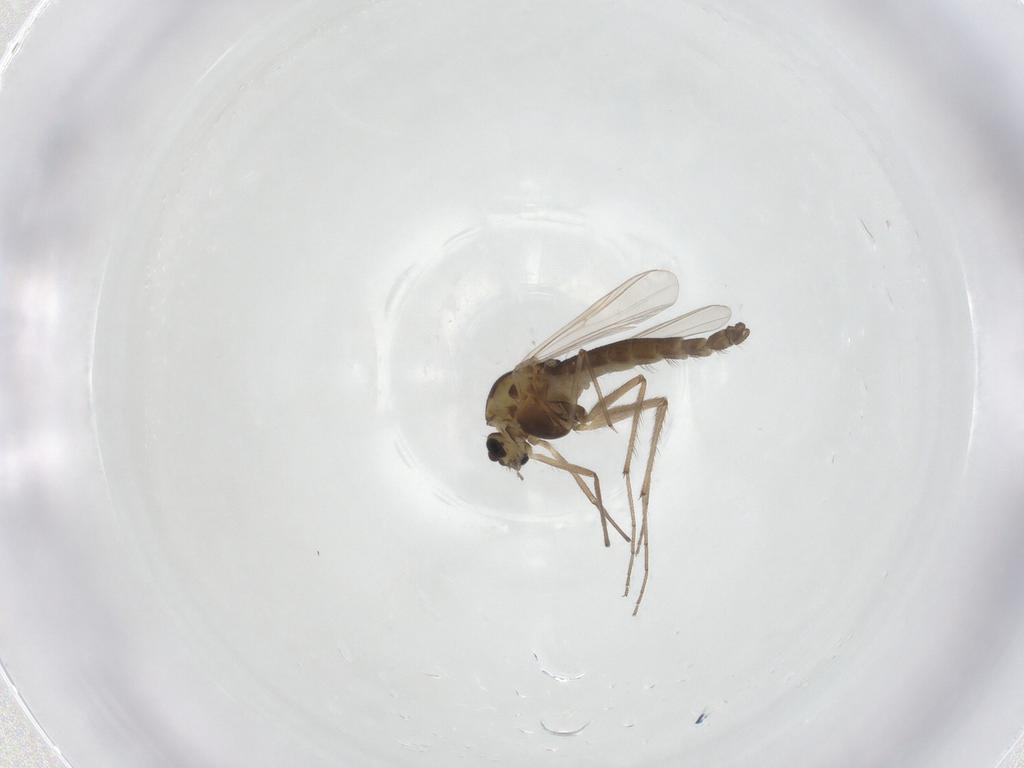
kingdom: Animalia
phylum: Arthropoda
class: Insecta
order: Diptera
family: Chironomidae
